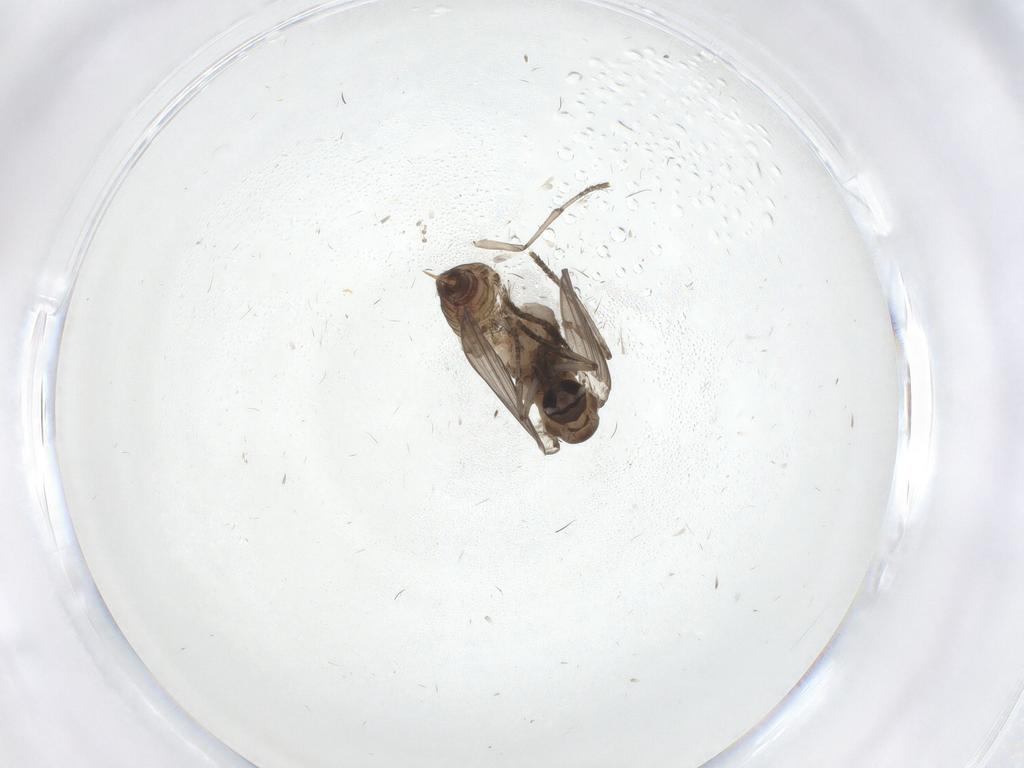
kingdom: Animalia
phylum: Arthropoda
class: Insecta
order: Diptera
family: Psychodidae
